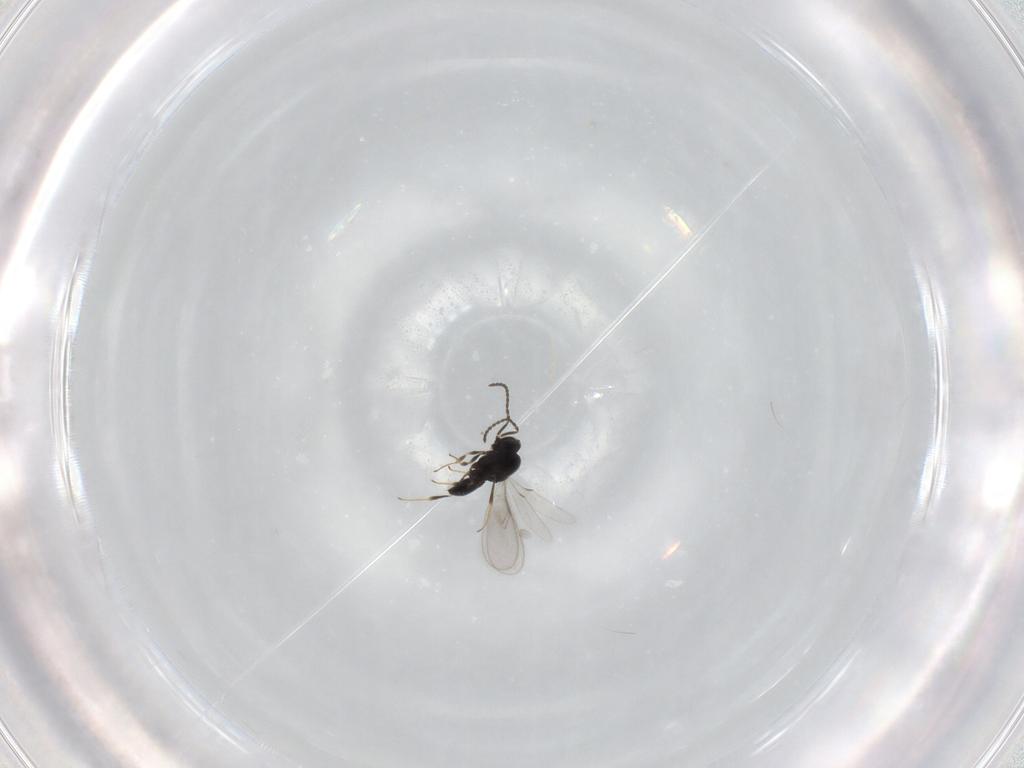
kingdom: Animalia
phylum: Arthropoda
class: Insecta
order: Hymenoptera
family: Scelionidae
